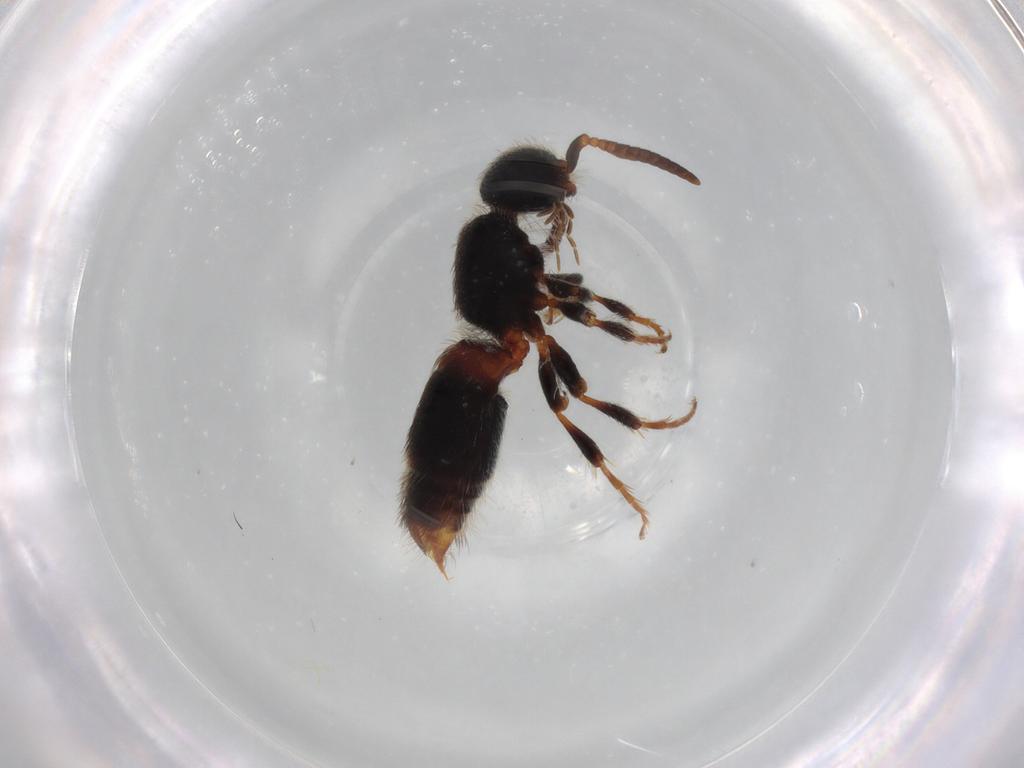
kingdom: Animalia
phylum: Arthropoda
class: Insecta
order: Hymenoptera
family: Mutillidae
